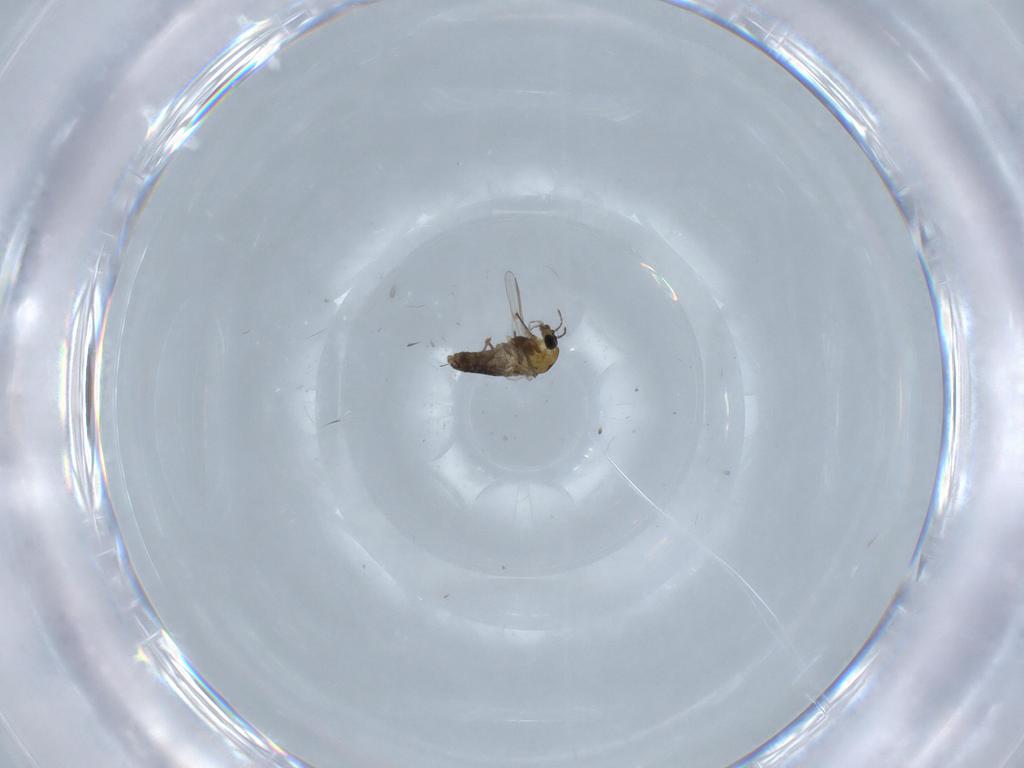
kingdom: Animalia
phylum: Arthropoda
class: Insecta
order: Diptera
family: Chironomidae
